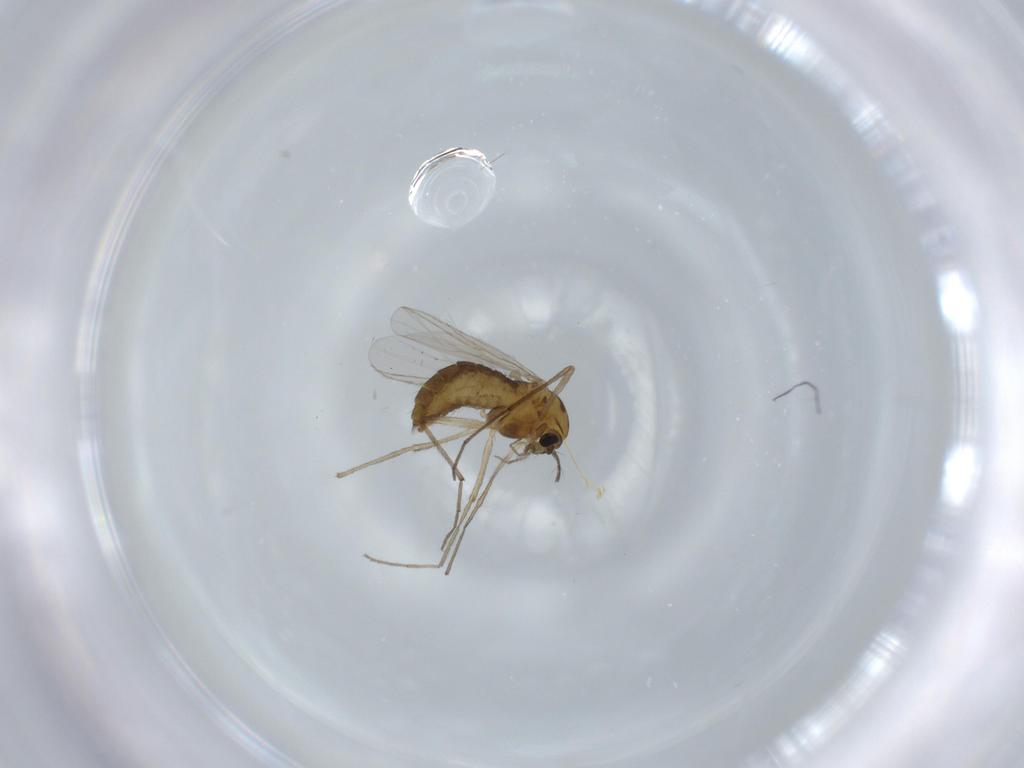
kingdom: Animalia
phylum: Arthropoda
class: Insecta
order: Diptera
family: Chironomidae
